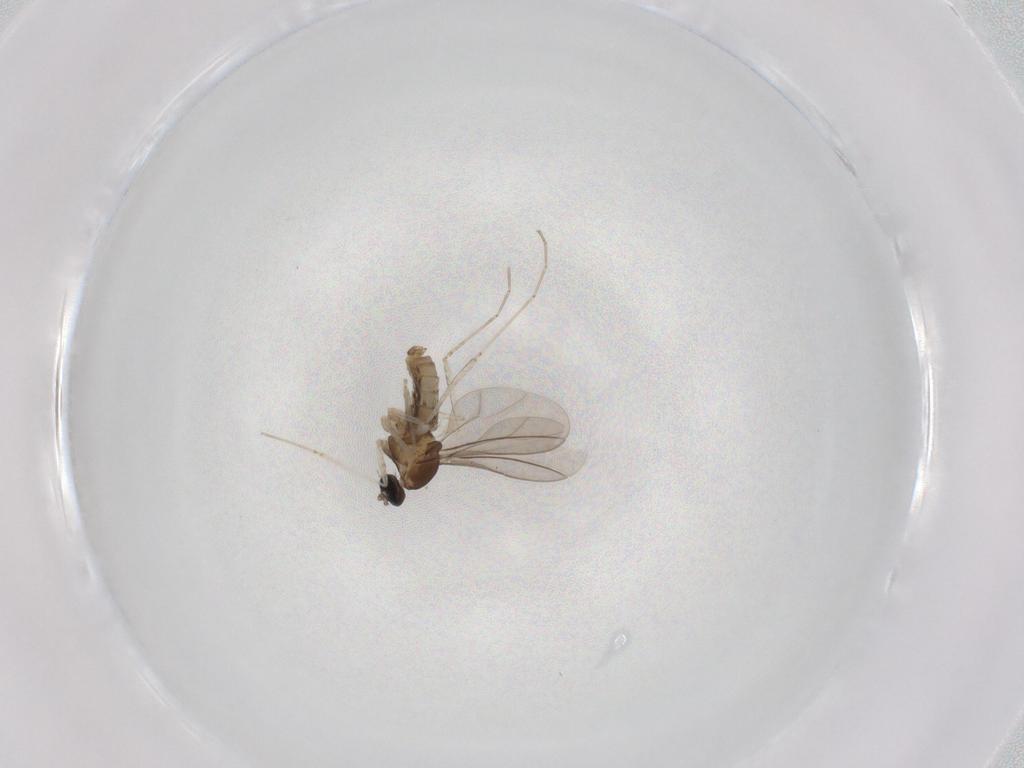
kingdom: Animalia
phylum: Arthropoda
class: Insecta
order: Diptera
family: Cecidomyiidae
